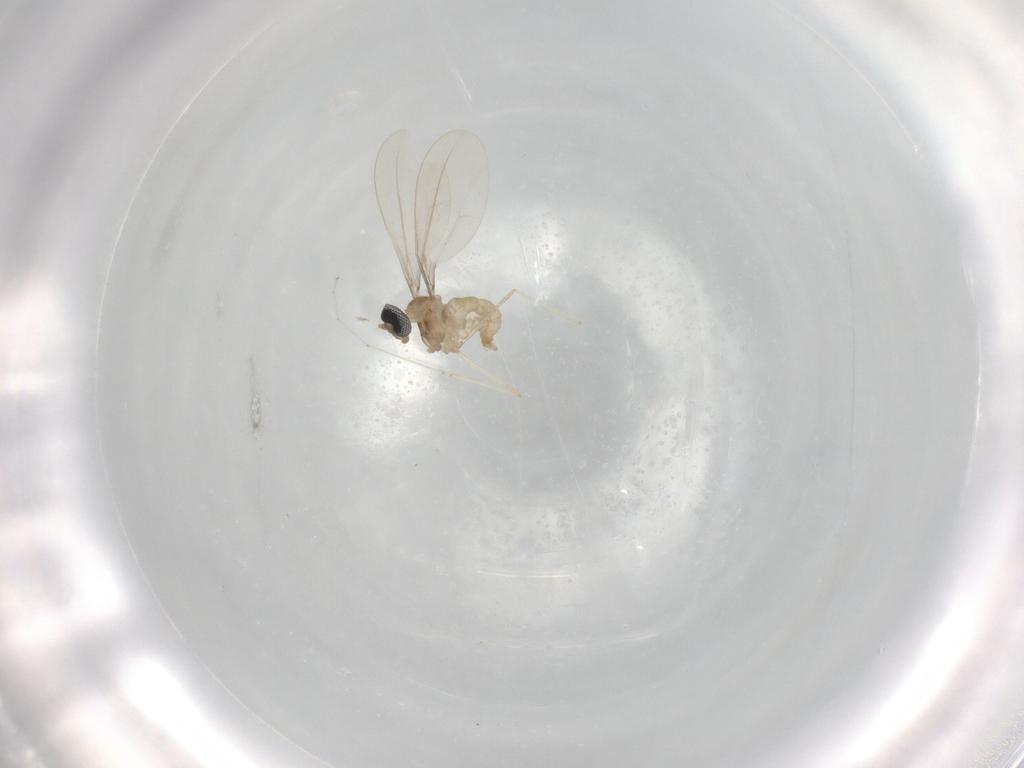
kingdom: Animalia
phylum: Arthropoda
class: Insecta
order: Diptera
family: Cecidomyiidae
